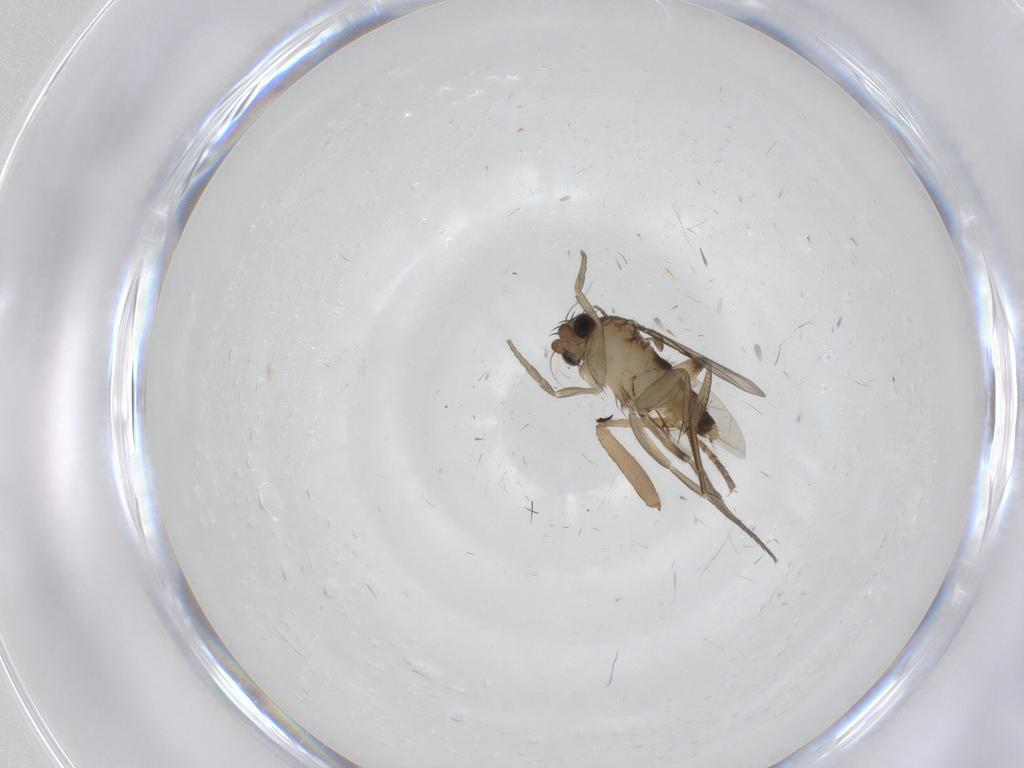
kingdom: Animalia
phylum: Arthropoda
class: Insecta
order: Diptera
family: Phoridae
